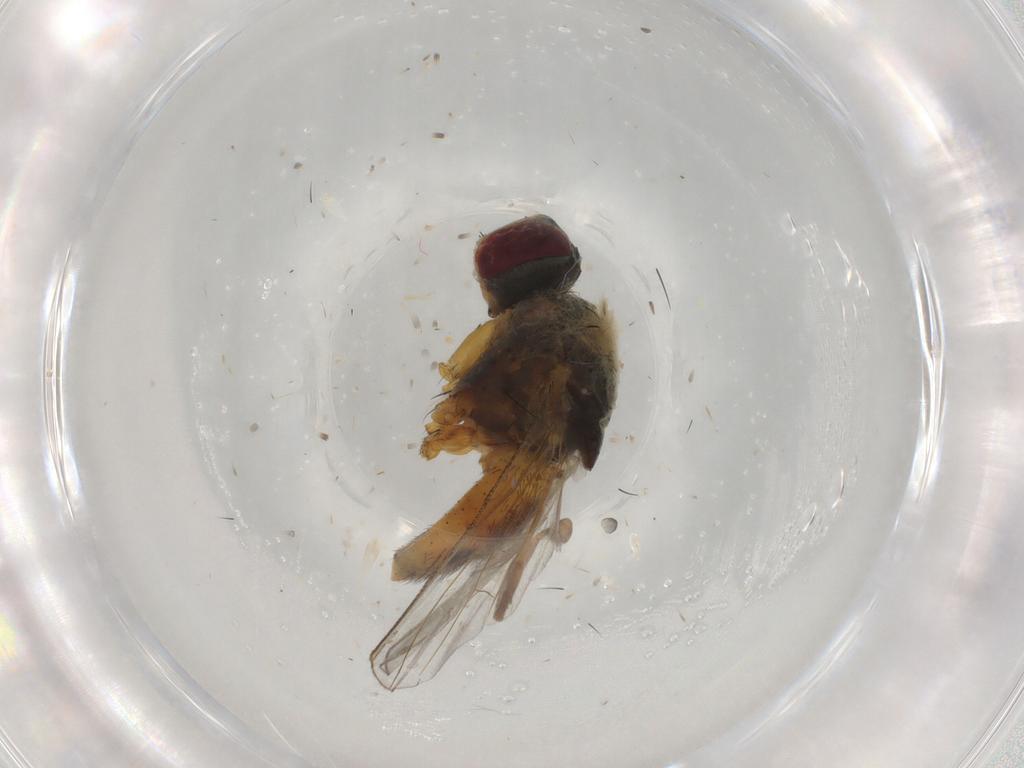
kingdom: Animalia
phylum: Arthropoda
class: Insecta
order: Diptera
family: Muscidae
